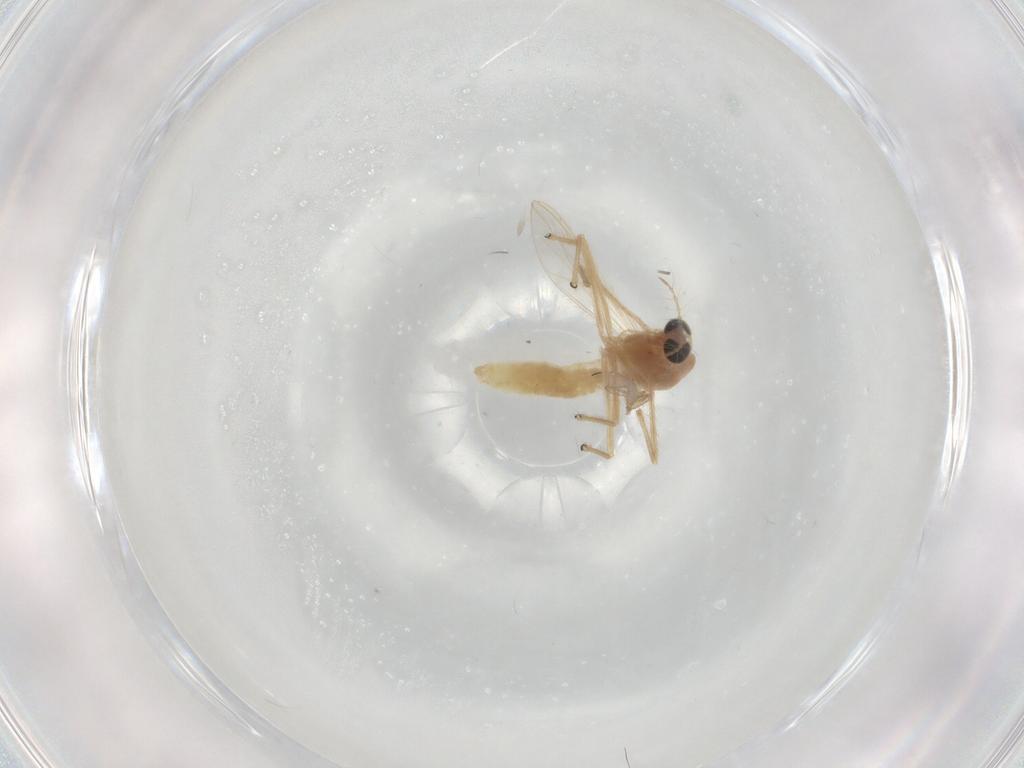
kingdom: Animalia
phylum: Arthropoda
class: Insecta
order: Diptera
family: Chironomidae
